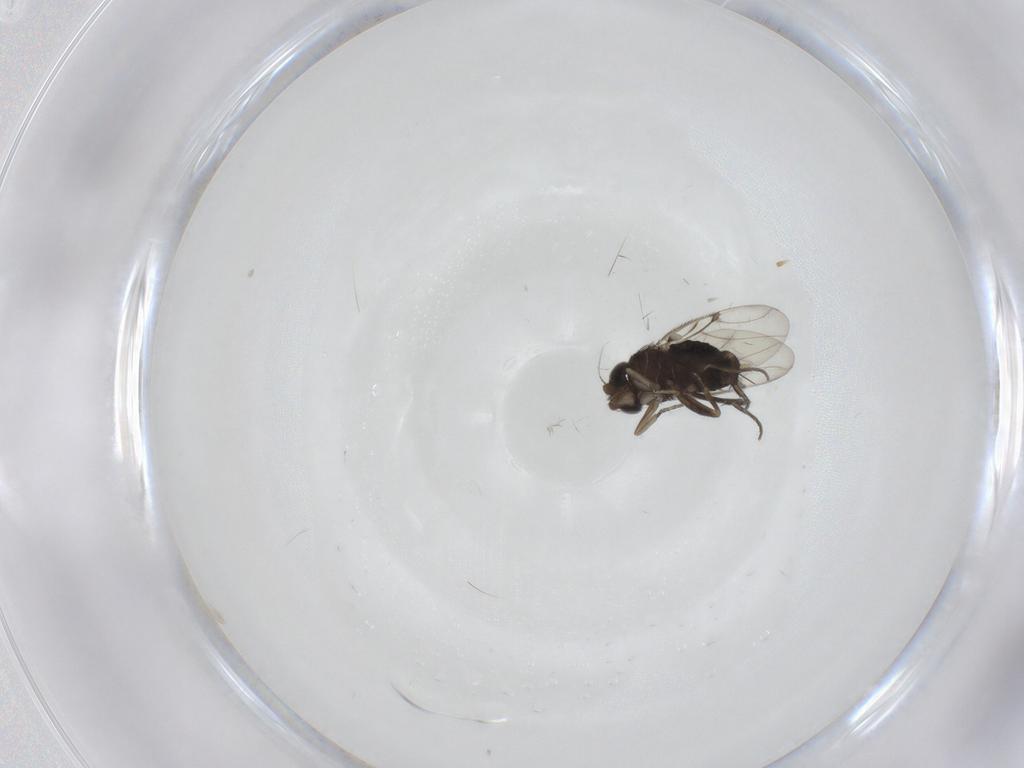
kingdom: Animalia
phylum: Arthropoda
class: Insecta
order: Diptera
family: Phoridae
